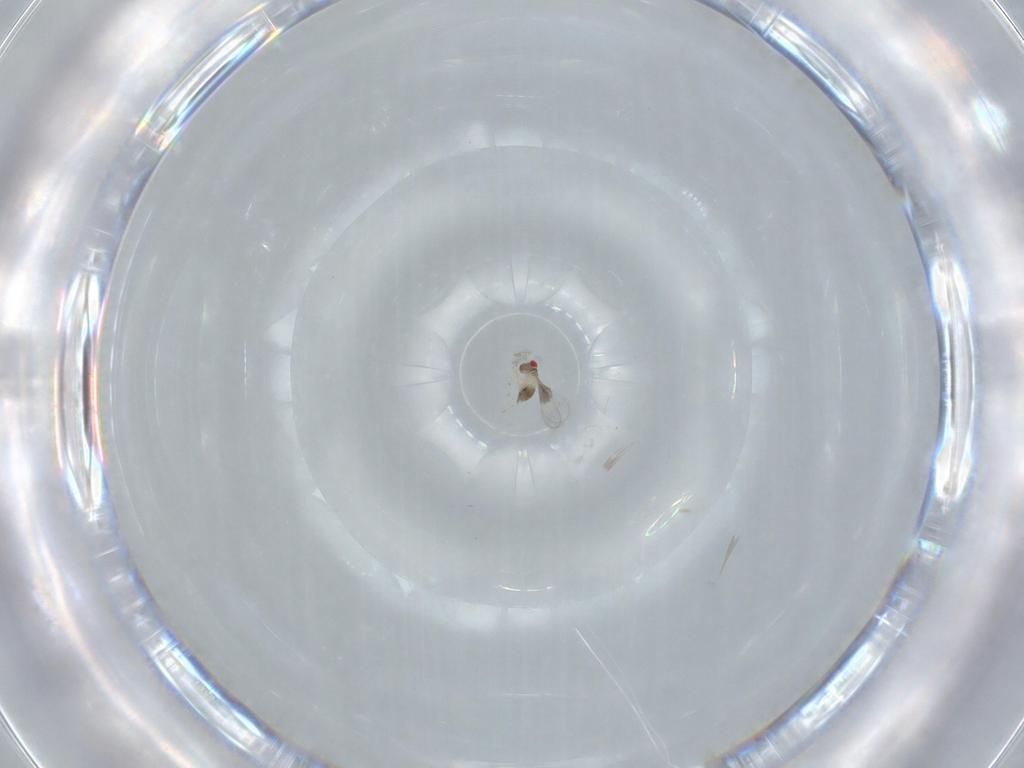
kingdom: Animalia
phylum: Arthropoda
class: Insecta
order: Hymenoptera
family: Trichogrammatidae
